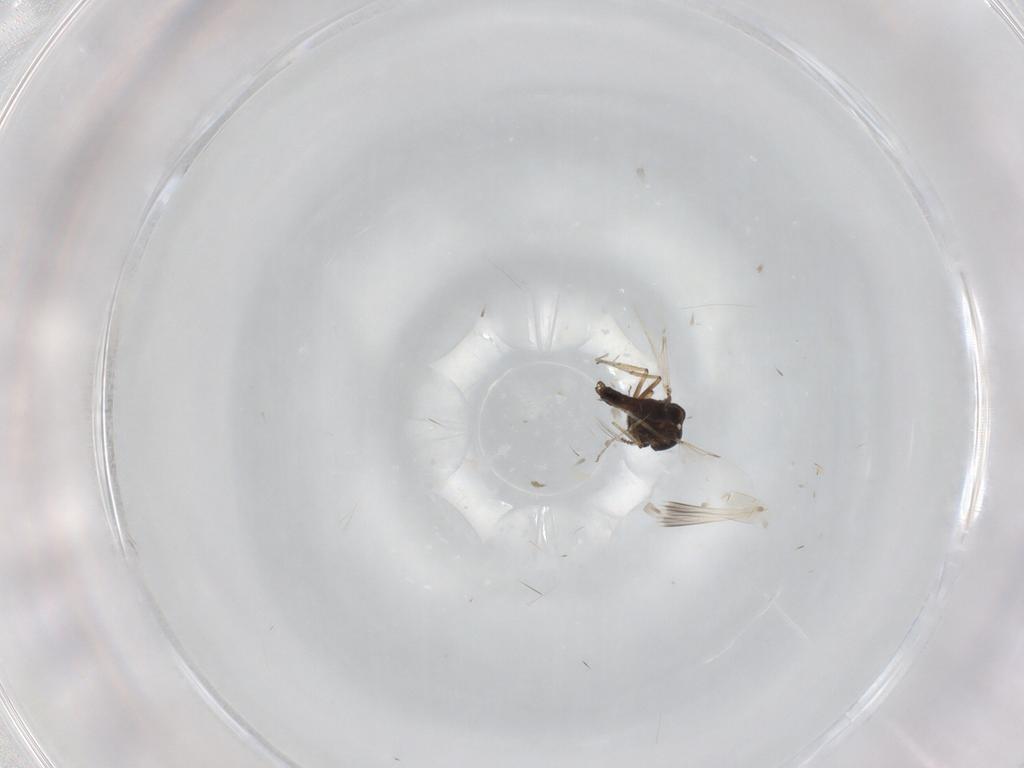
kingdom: Animalia
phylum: Arthropoda
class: Insecta
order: Diptera
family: Ceratopogonidae
